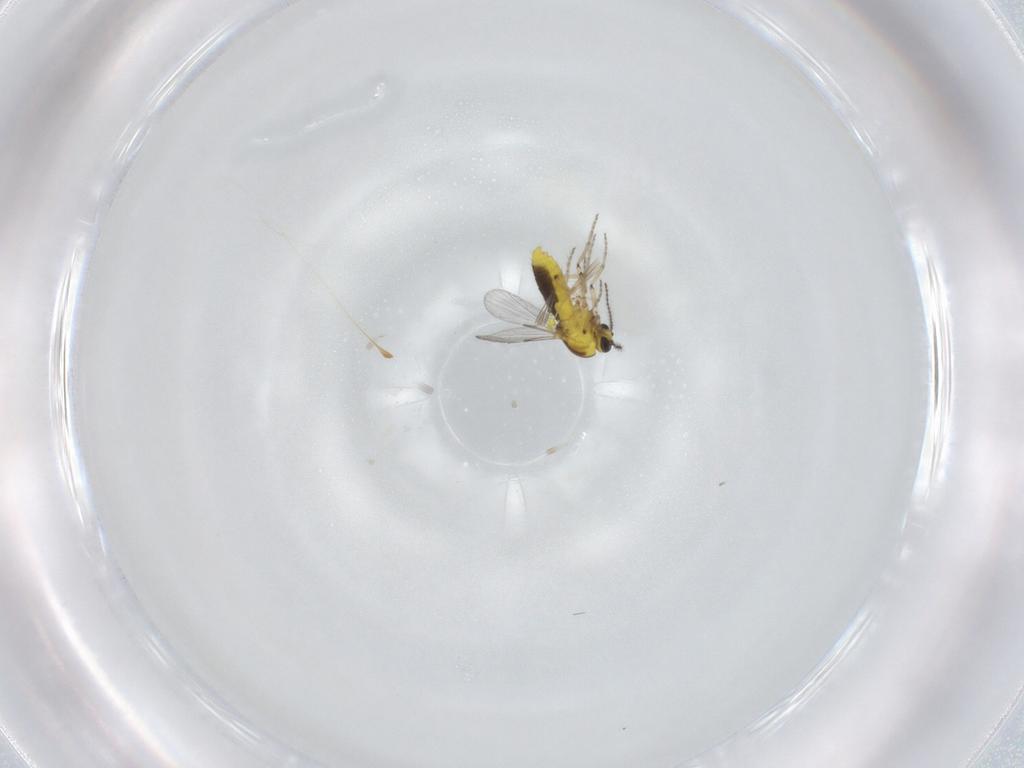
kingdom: Animalia
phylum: Arthropoda
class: Insecta
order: Diptera
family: Ceratopogonidae
